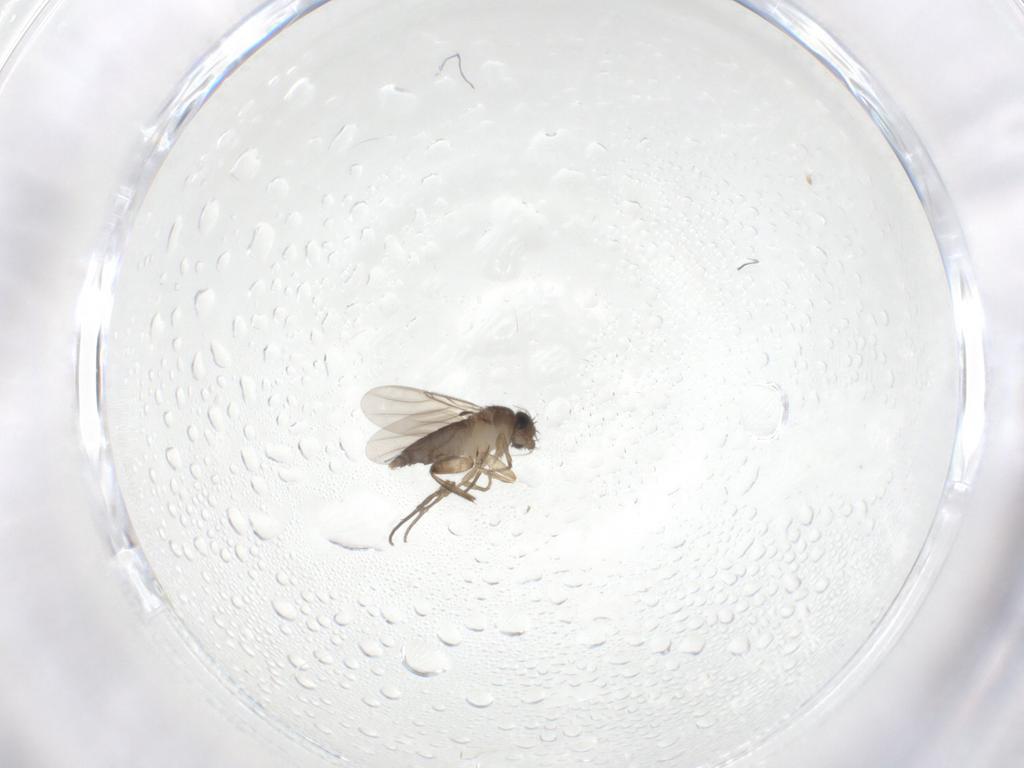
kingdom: Animalia
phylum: Arthropoda
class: Insecta
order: Diptera
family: Phoridae
